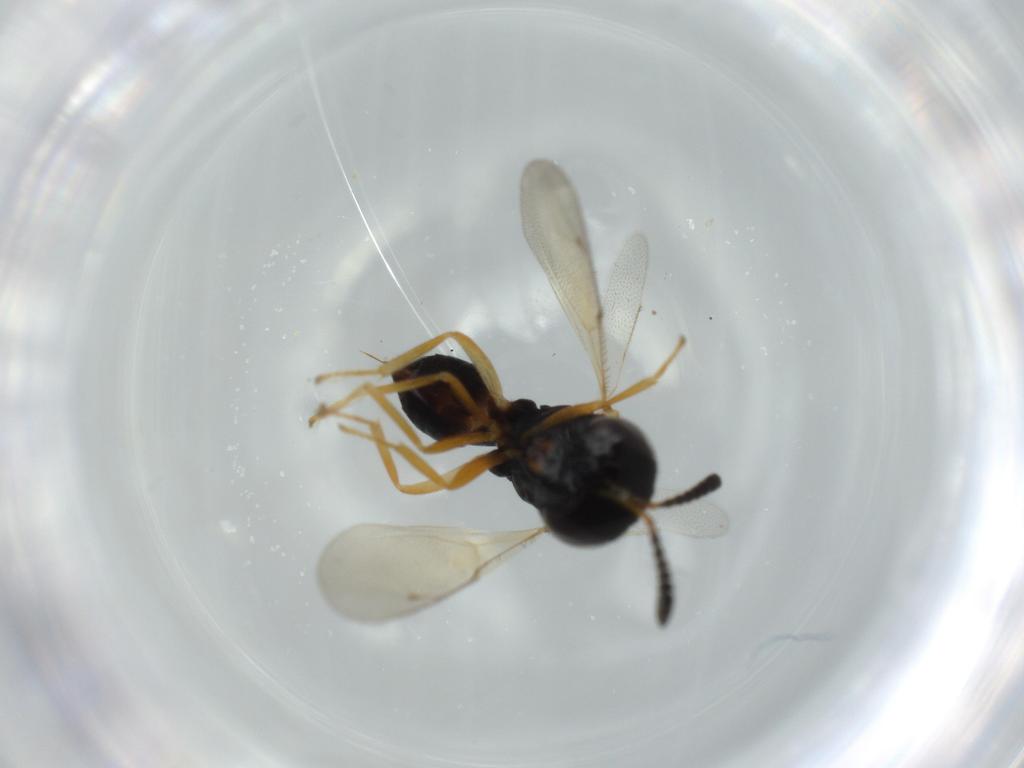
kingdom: Animalia
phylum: Arthropoda
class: Insecta
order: Hymenoptera
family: Pteromalidae
